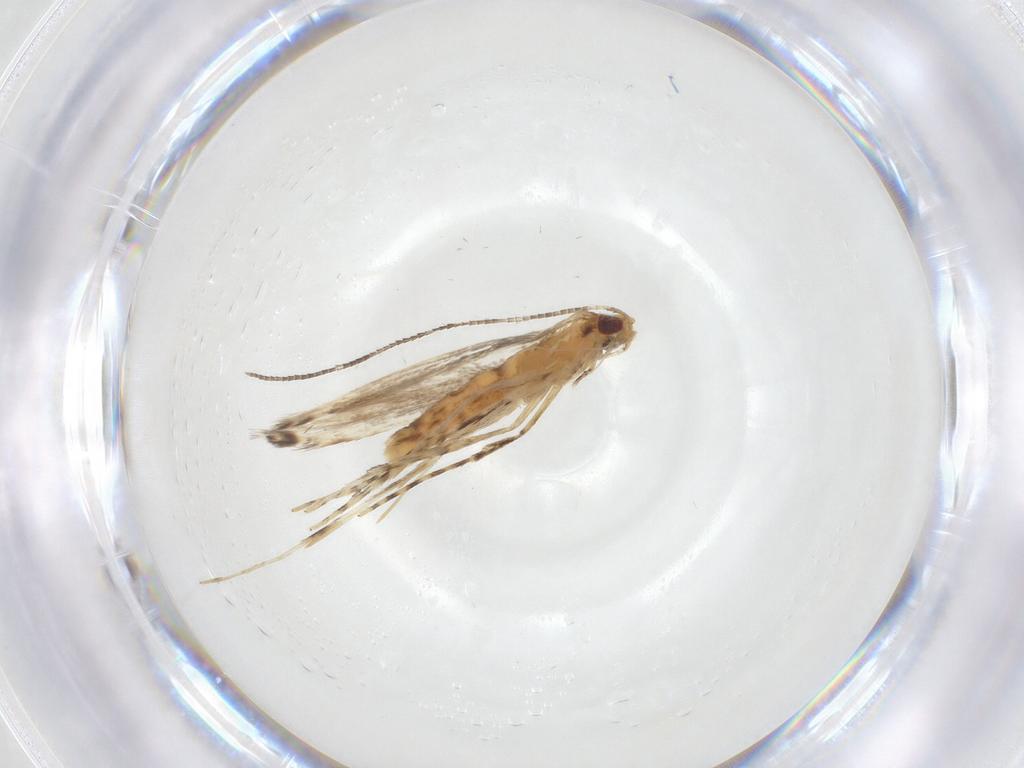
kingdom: Animalia
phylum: Arthropoda
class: Insecta
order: Lepidoptera
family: Gracillariidae
